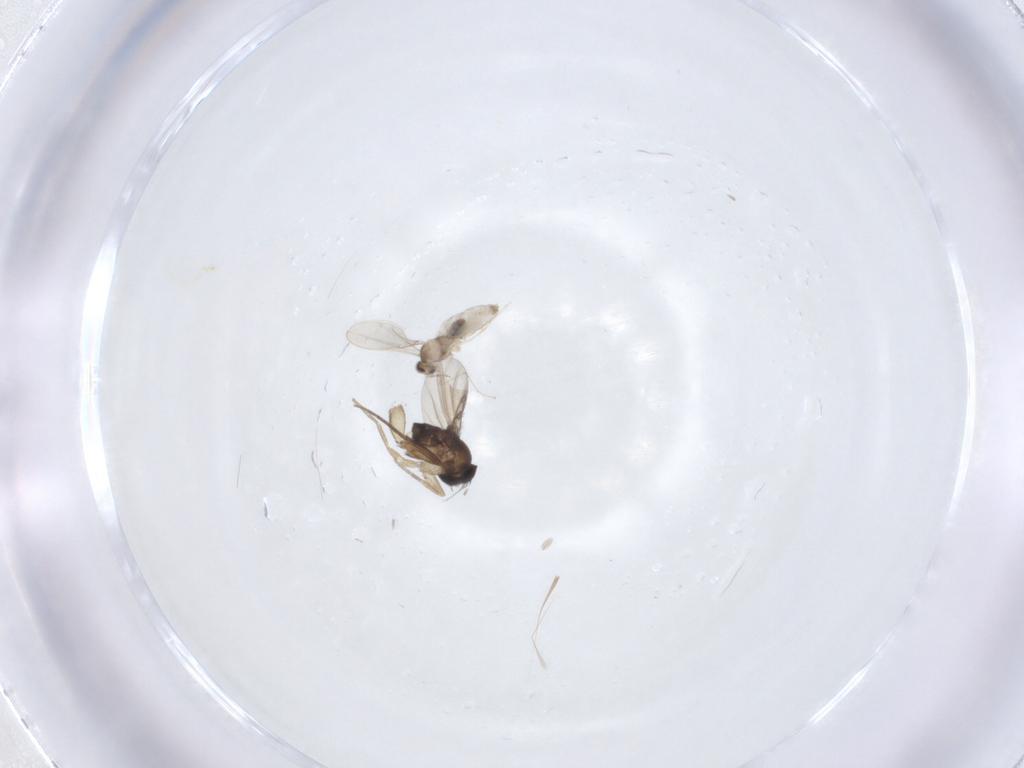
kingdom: Animalia
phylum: Arthropoda
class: Insecta
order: Diptera
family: Phoridae
